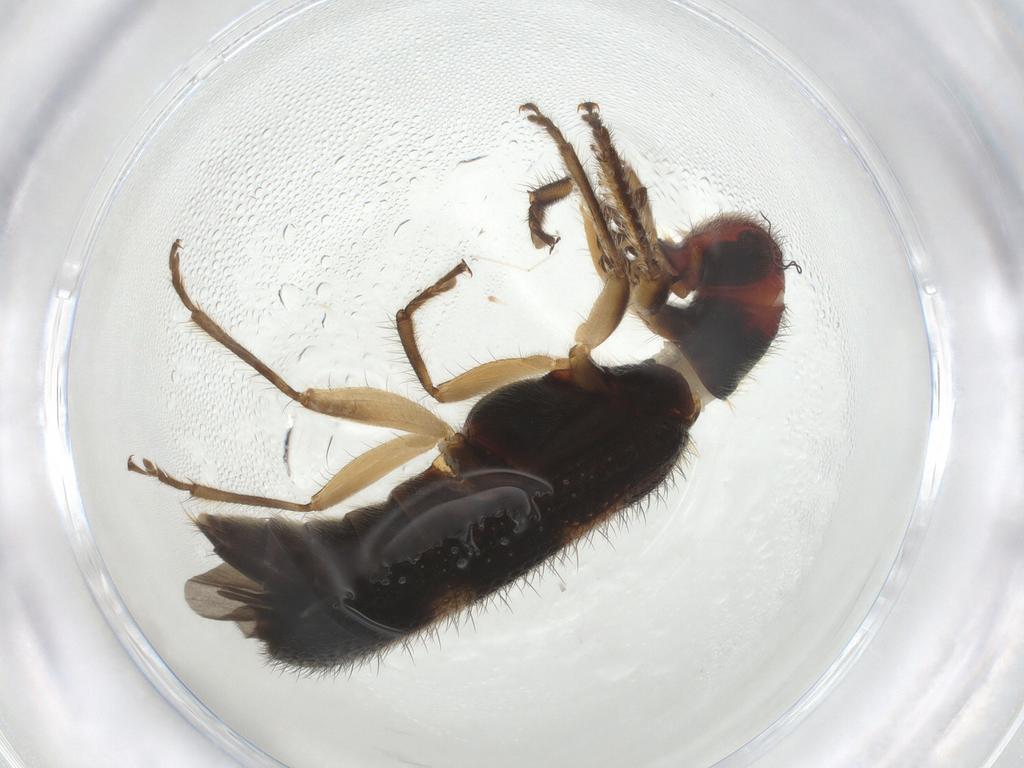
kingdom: Animalia
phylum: Arthropoda
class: Insecta
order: Coleoptera
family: Cleridae
